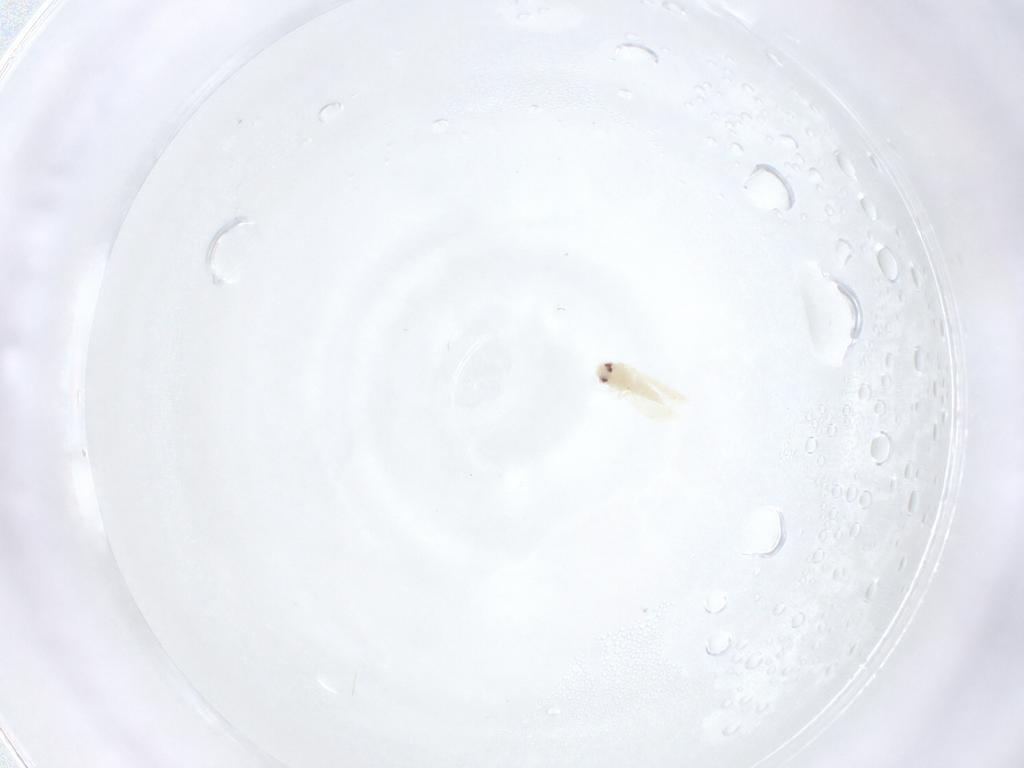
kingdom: Animalia
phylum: Arthropoda
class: Insecta
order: Hemiptera
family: Aleyrodidae
